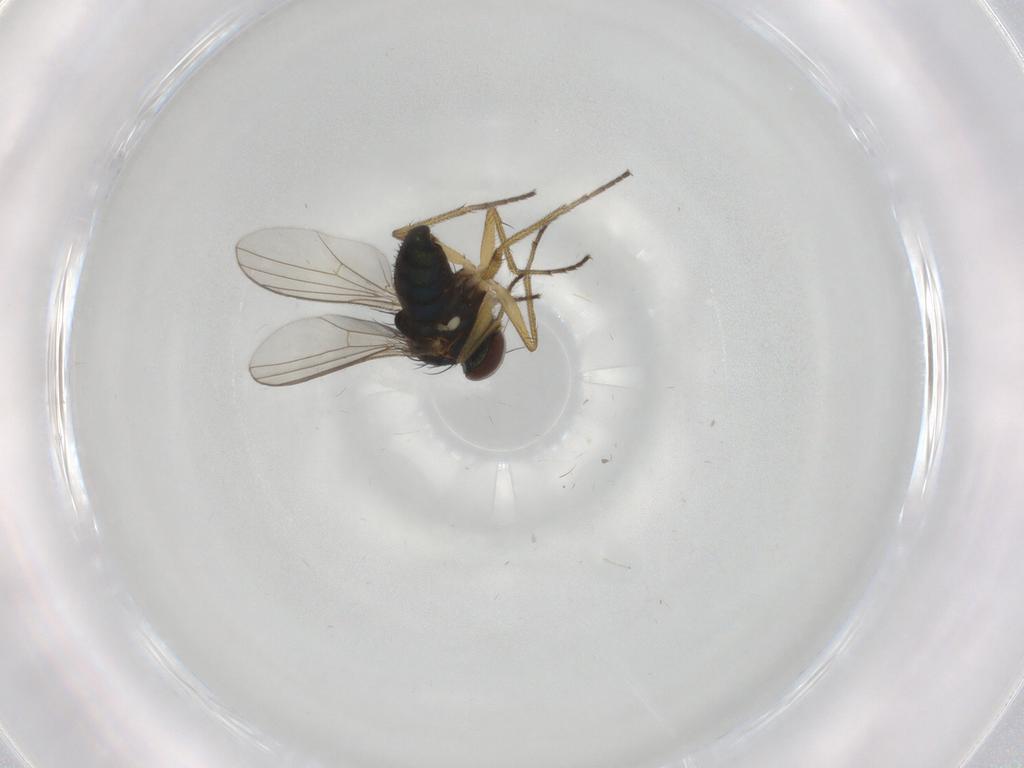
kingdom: Animalia
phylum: Arthropoda
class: Insecta
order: Diptera
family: Dolichopodidae
